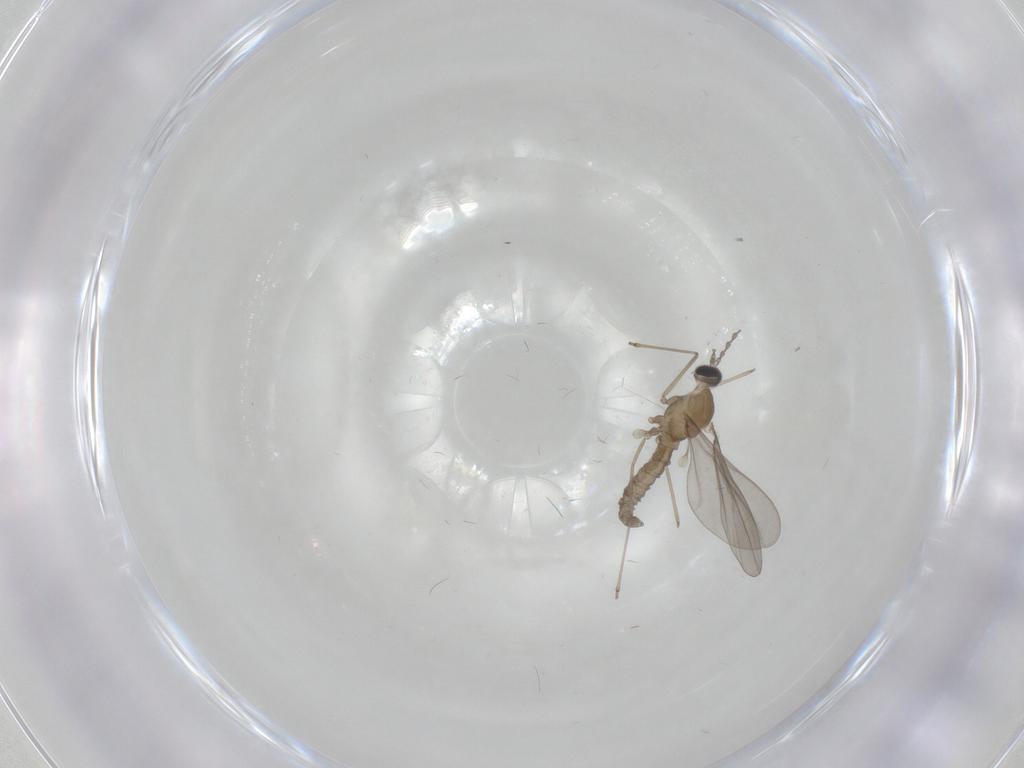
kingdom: Animalia
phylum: Arthropoda
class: Insecta
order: Diptera
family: Cecidomyiidae
